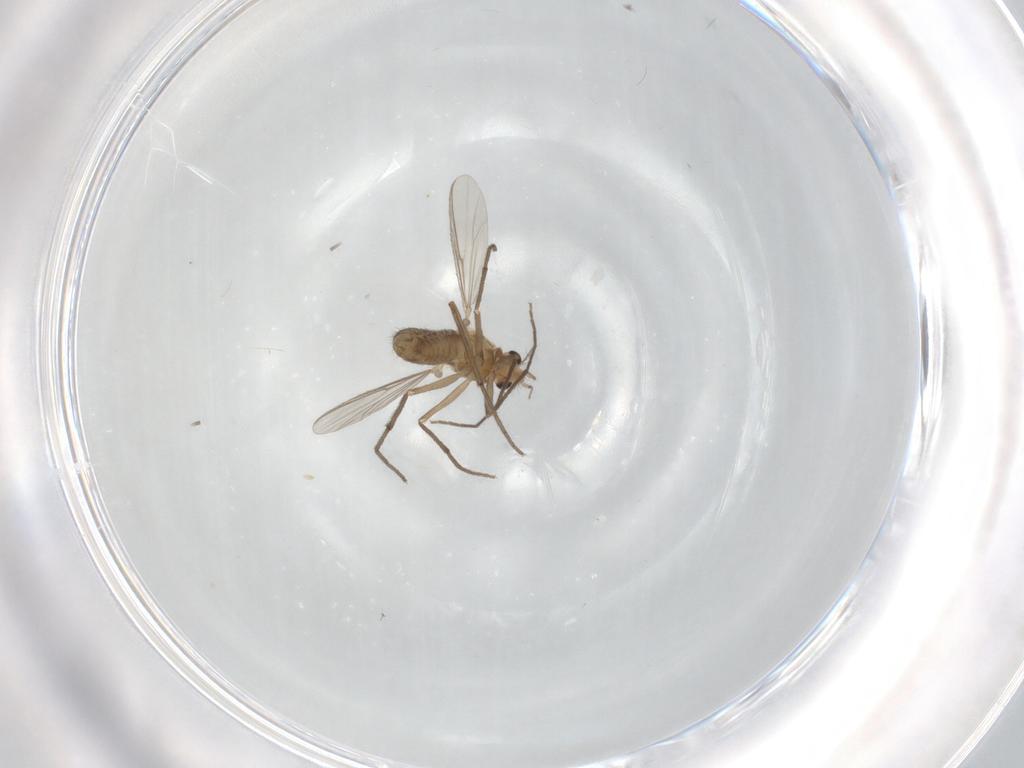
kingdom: Animalia
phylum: Arthropoda
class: Insecta
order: Diptera
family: Chironomidae
